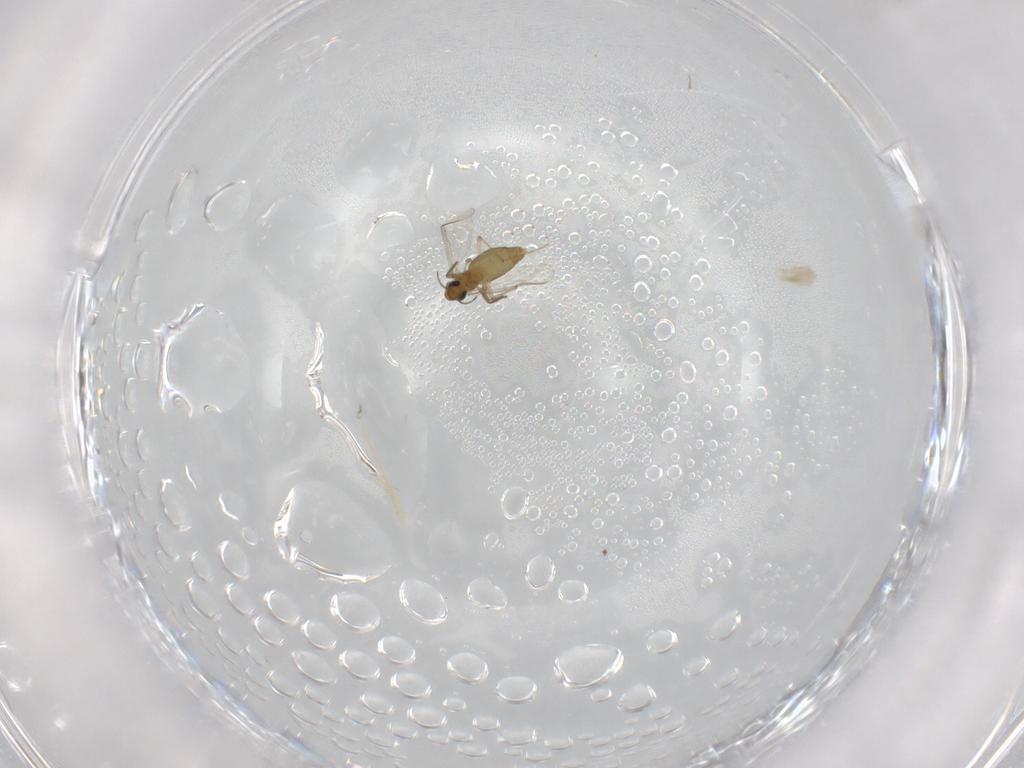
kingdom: Animalia
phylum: Arthropoda
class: Insecta
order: Diptera
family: Chironomidae
